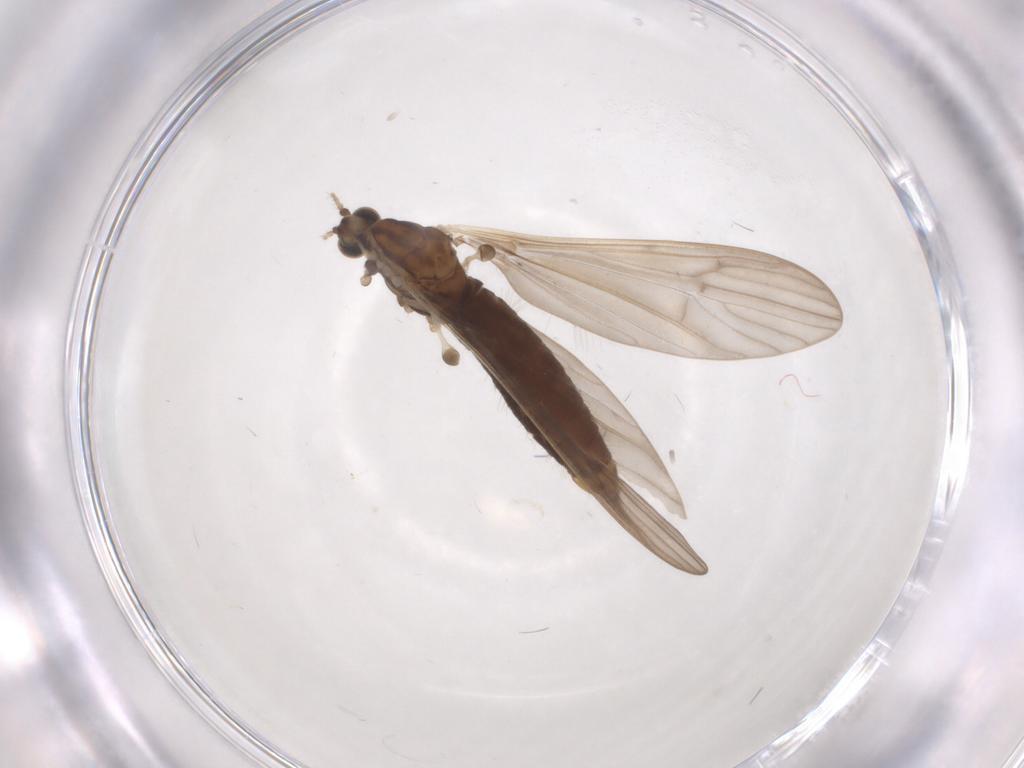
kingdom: Animalia
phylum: Arthropoda
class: Insecta
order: Diptera
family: Limoniidae
